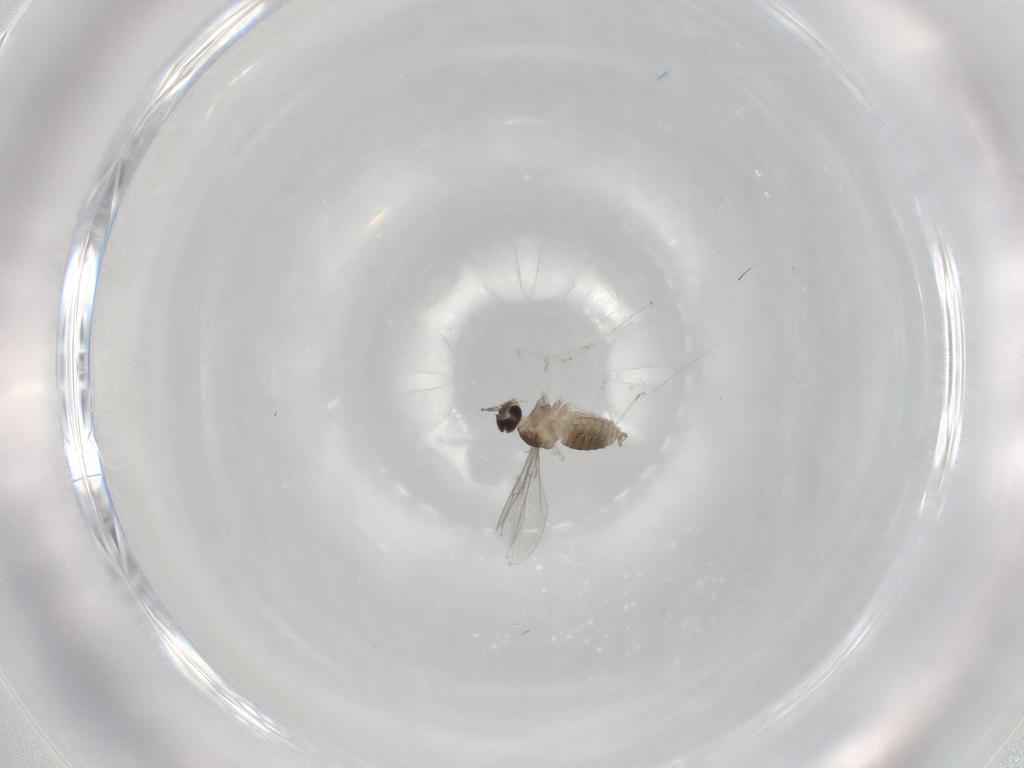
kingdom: Animalia
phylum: Arthropoda
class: Insecta
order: Diptera
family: Cecidomyiidae
